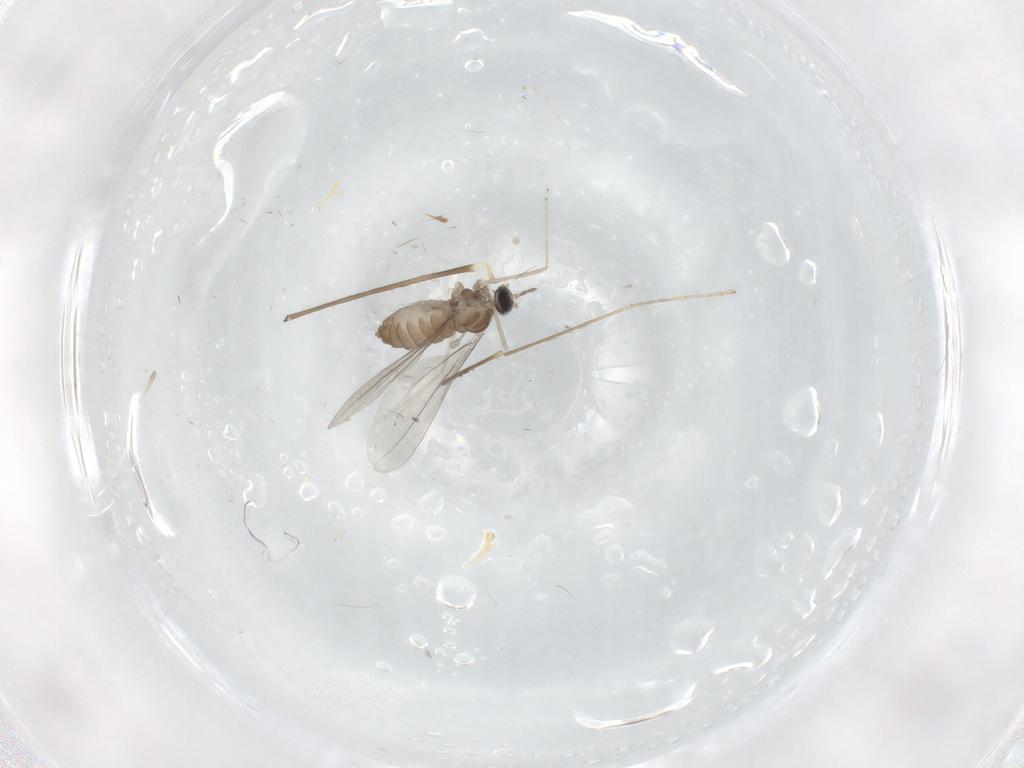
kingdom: Animalia
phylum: Arthropoda
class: Insecta
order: Diptera
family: Cecidomyiidae
